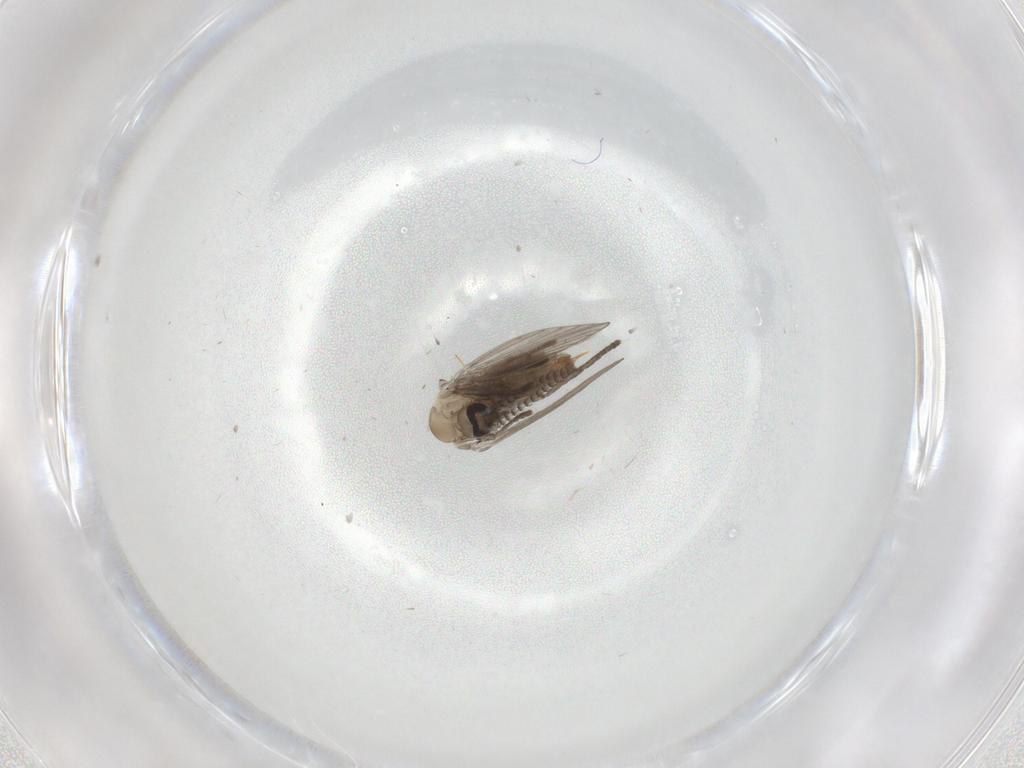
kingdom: Animalia
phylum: Arthropoda
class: Insecta
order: Diptera
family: Psychodidae
